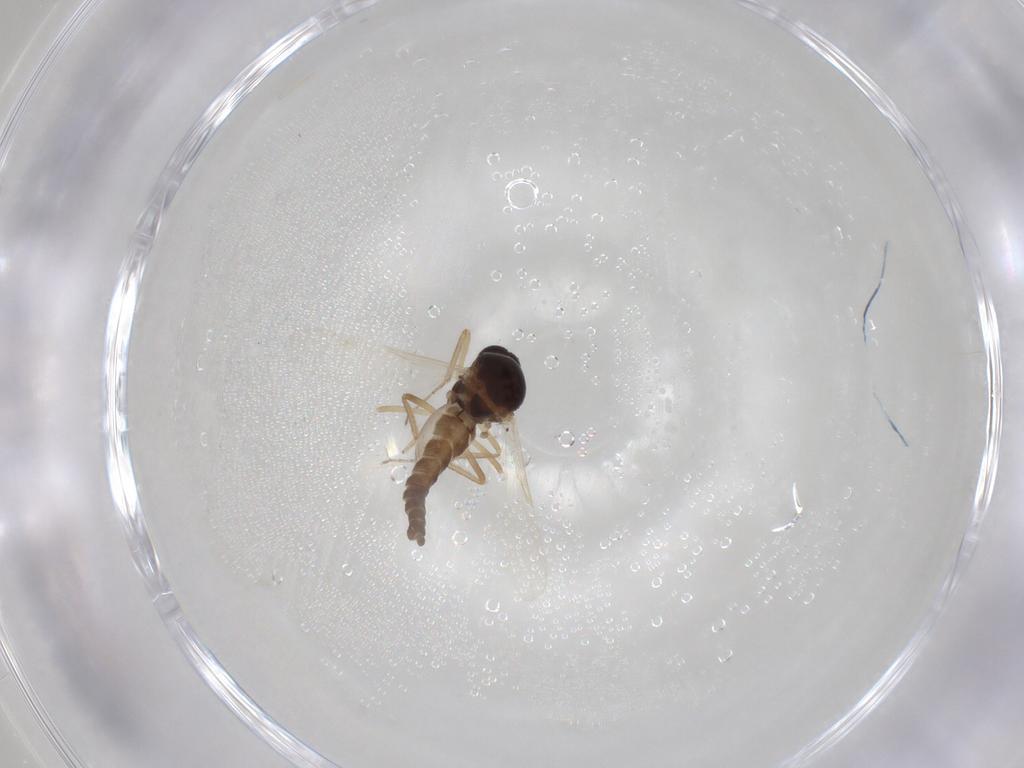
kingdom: Animalia
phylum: Arthropoda
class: Insecta
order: Diptera
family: Ceratopogonidae
